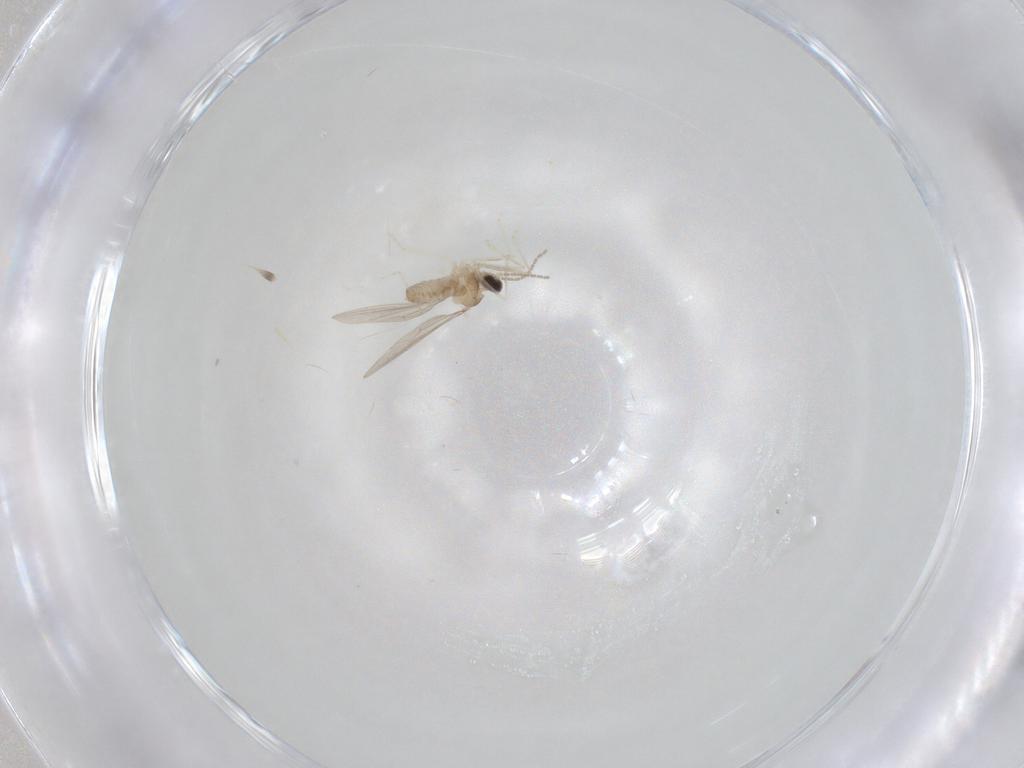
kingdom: Animalia
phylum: Arthropoda
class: Insecta
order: Diptera
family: Cecidomyiidae
